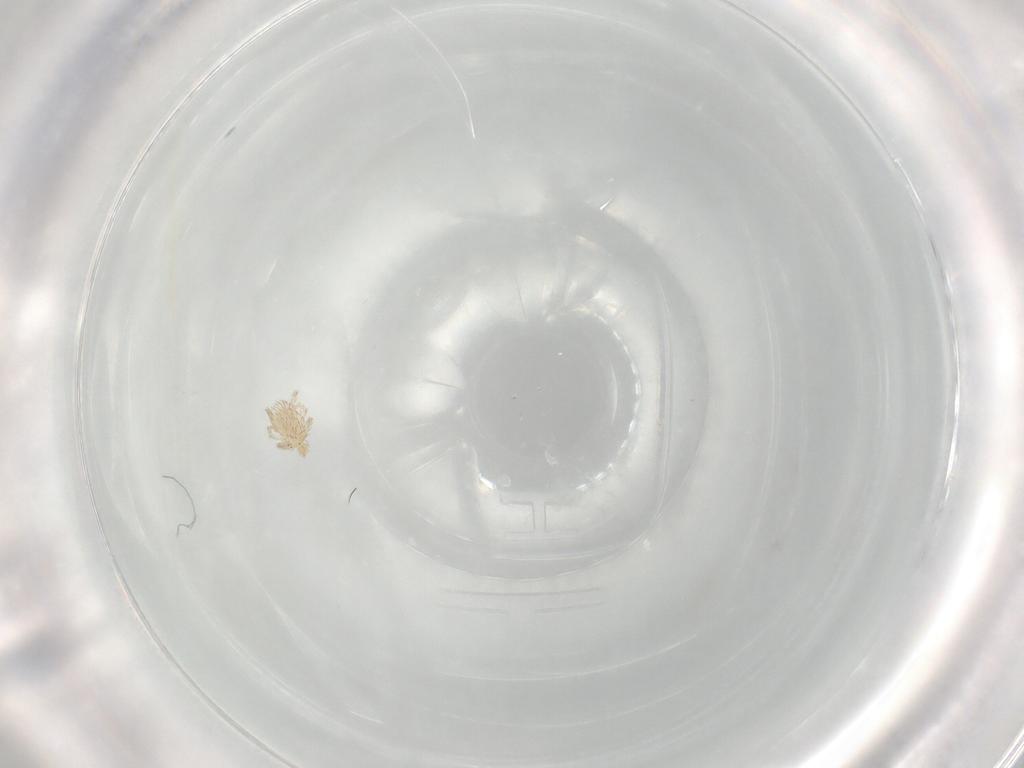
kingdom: Animalia
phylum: Arthropoda
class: Arachnida
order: Trombidiformes
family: Erythraeidae
